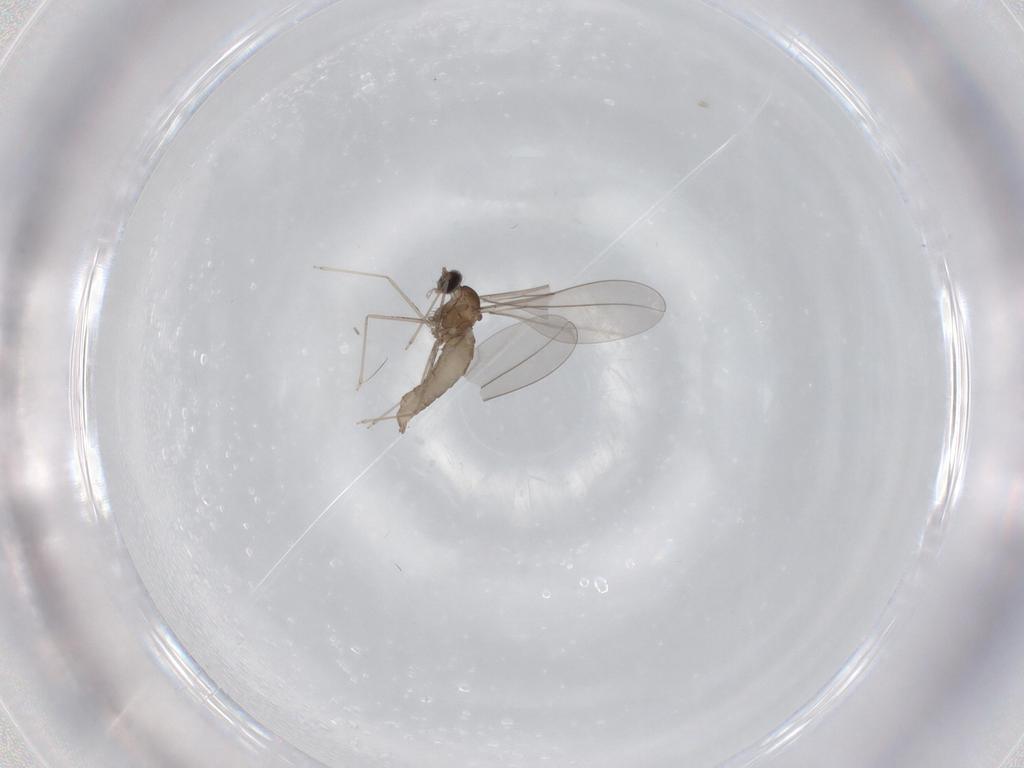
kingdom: Animalia
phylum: Arthropoda
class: Insecta
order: Diptera
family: Cecidomyiidae
